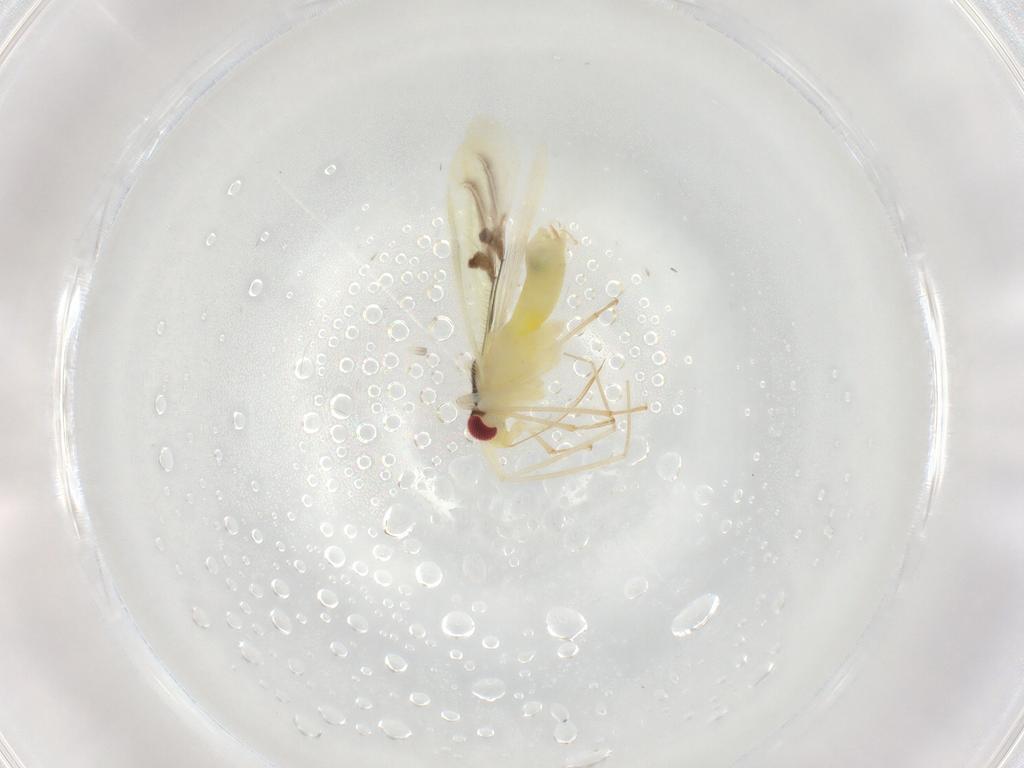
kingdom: Animalia
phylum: Arthropoda
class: Insecta
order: Hemiptera
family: Miridae
